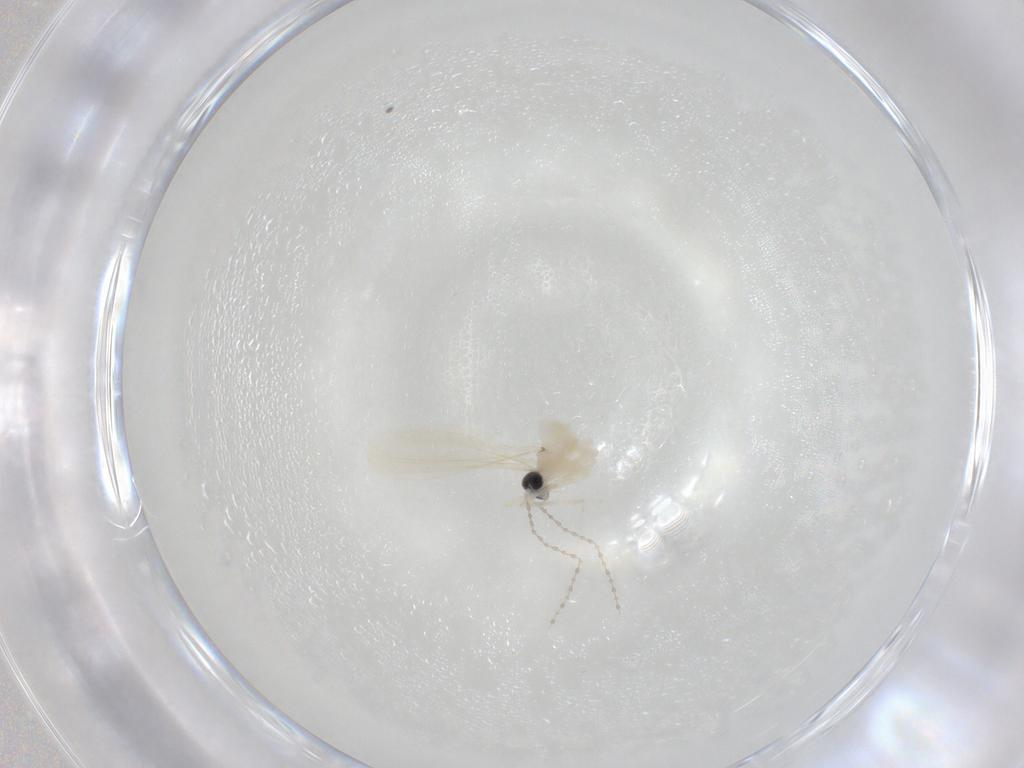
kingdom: Animalia
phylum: Arthropoda
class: Insecta
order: Diptera
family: Cecidomyiidae
